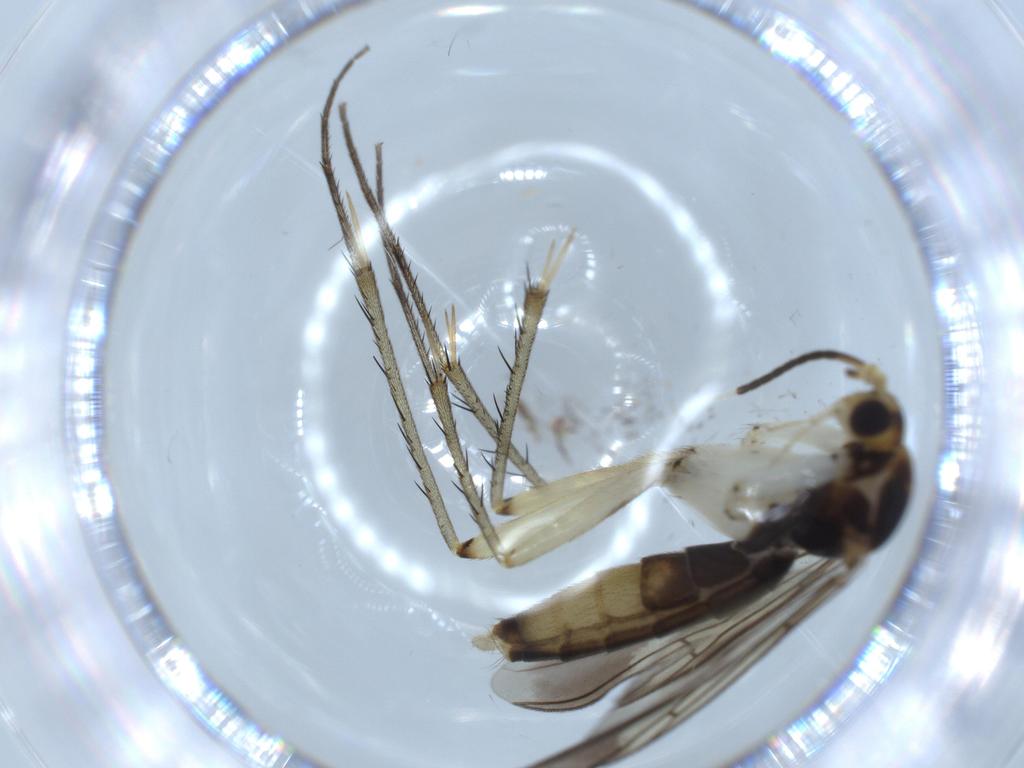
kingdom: Animalia
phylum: Arthropoda
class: Insecta
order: Diptera
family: Mycetophilidae
